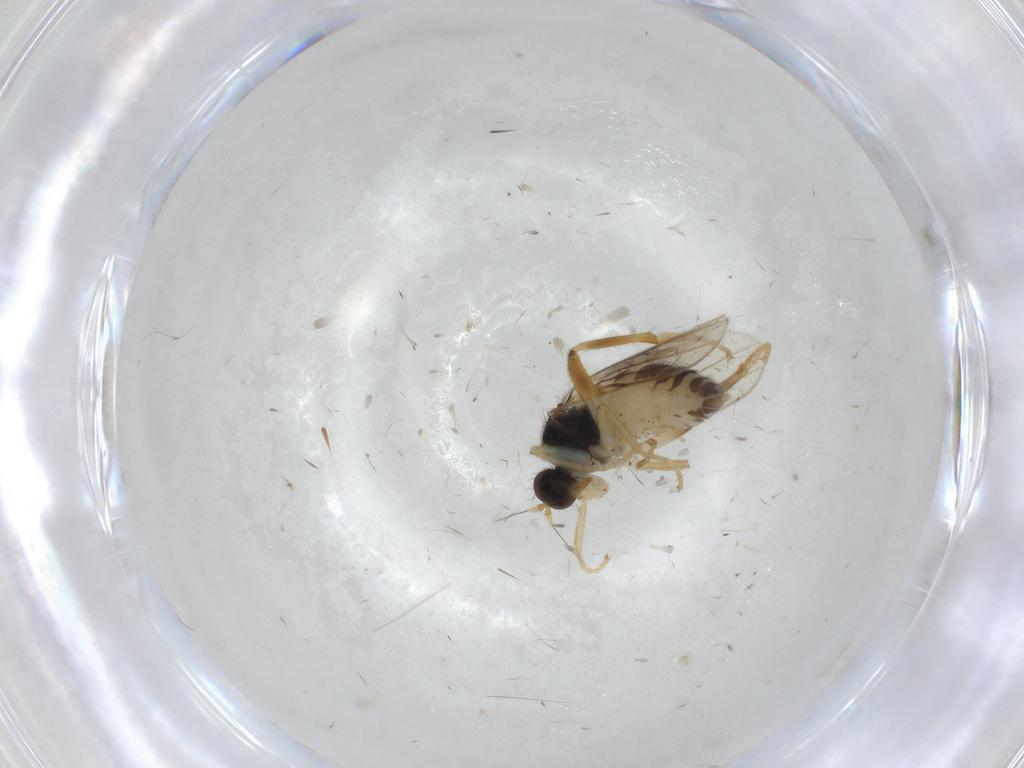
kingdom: Animalia
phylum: Arthropoda
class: Insecta
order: Diptera
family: Hybotidae
